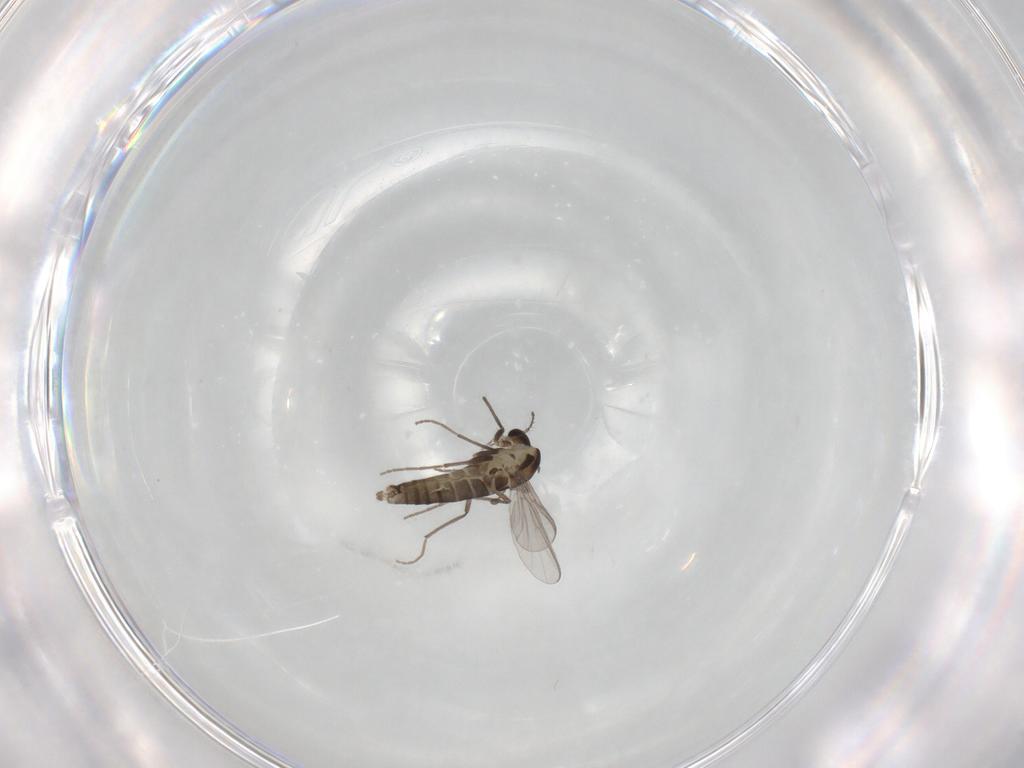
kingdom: Animalia
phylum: Arthropoda
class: Insecta
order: Diptera
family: Chironomidae
